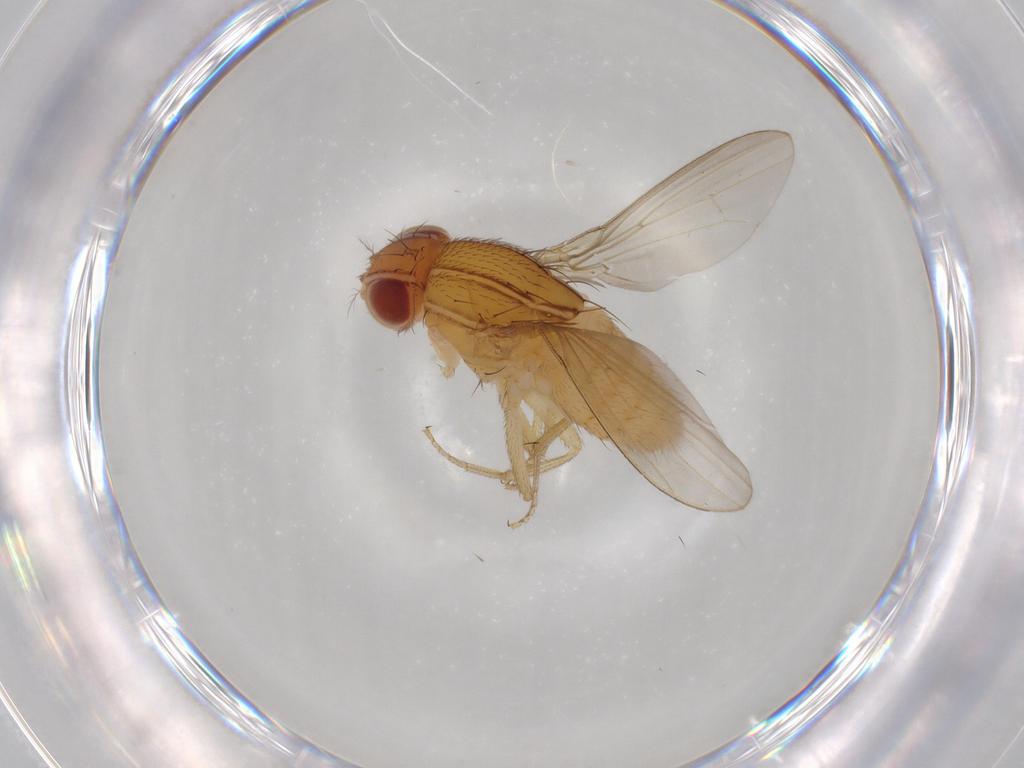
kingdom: Animalia
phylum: Arthropoda
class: Insecta
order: Diptera
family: Drosophilidae
